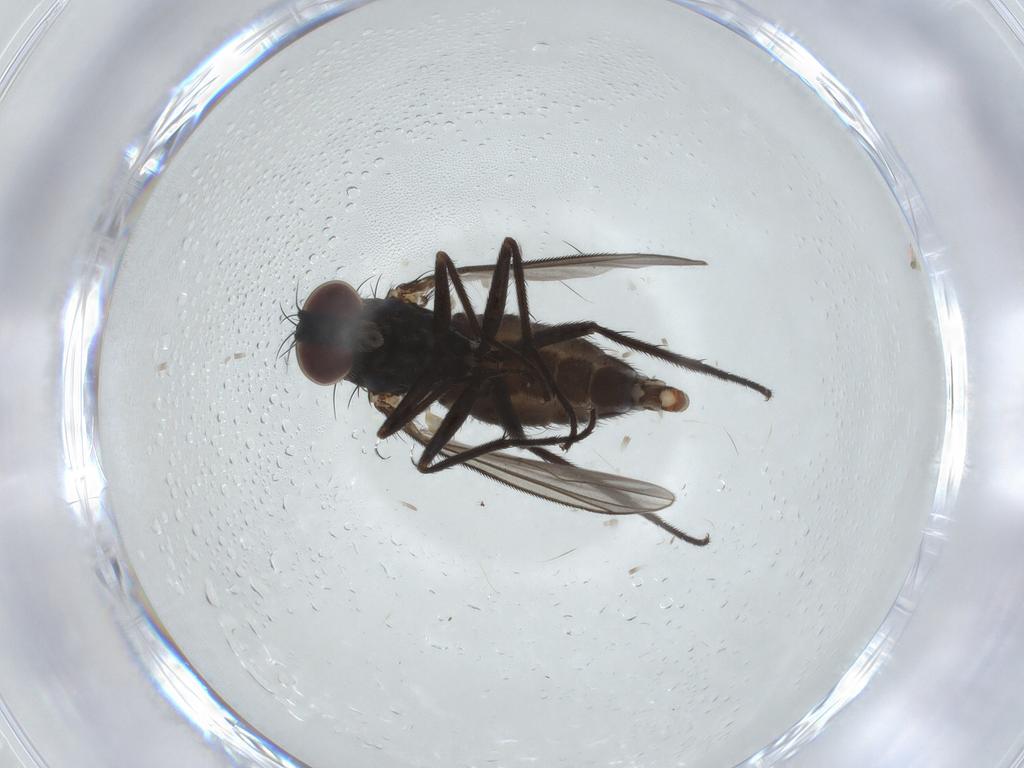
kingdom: Animalia
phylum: Arthropoda
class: Insecta
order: Diptera
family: Dolichopodidae
